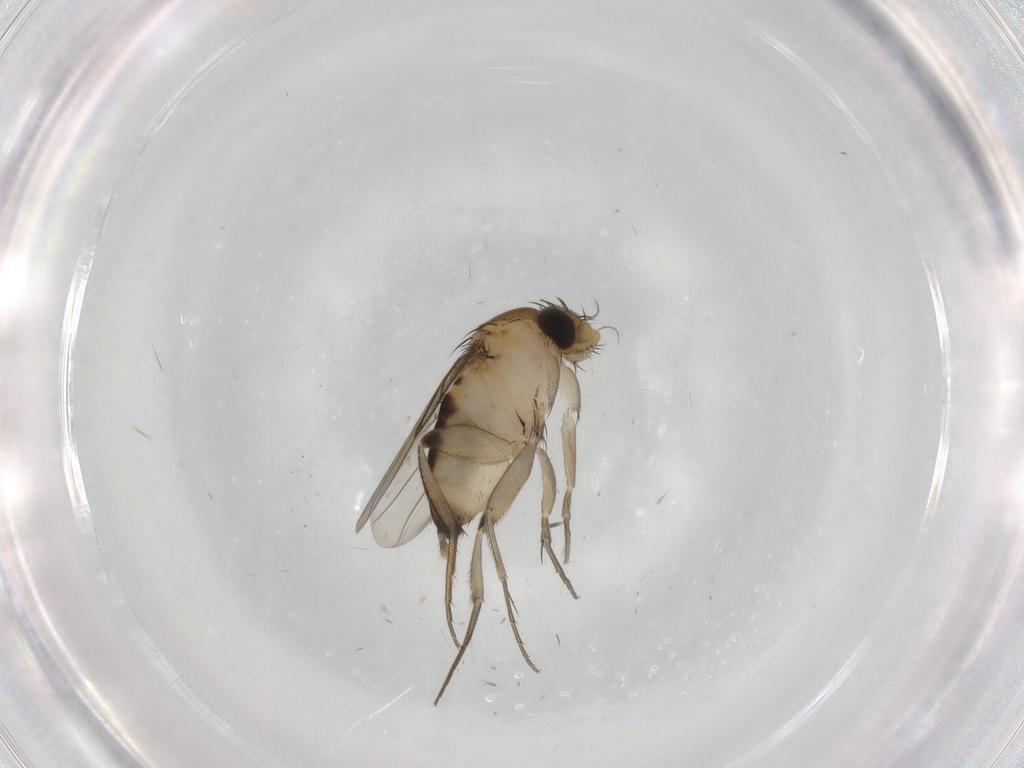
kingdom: Animalia
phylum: Arthropoda
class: Insecta
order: Diptera
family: Phoridae
